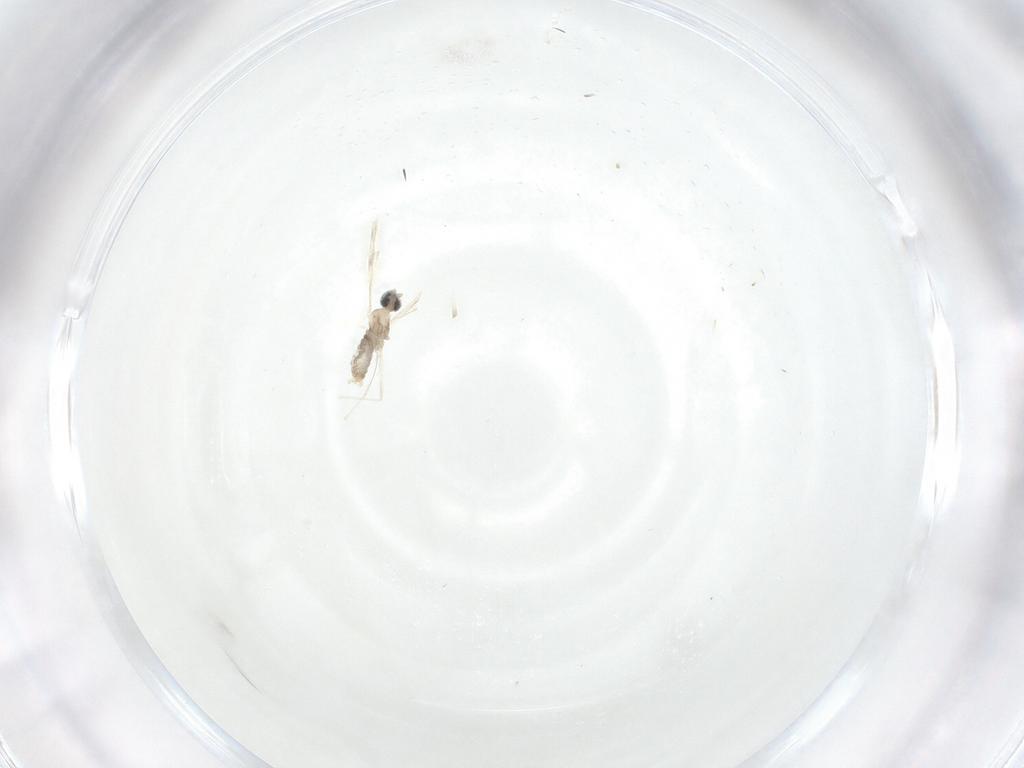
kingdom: Animalia
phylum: Arthropoda
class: Insecta
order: Diptera
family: Cecidomyiidae
